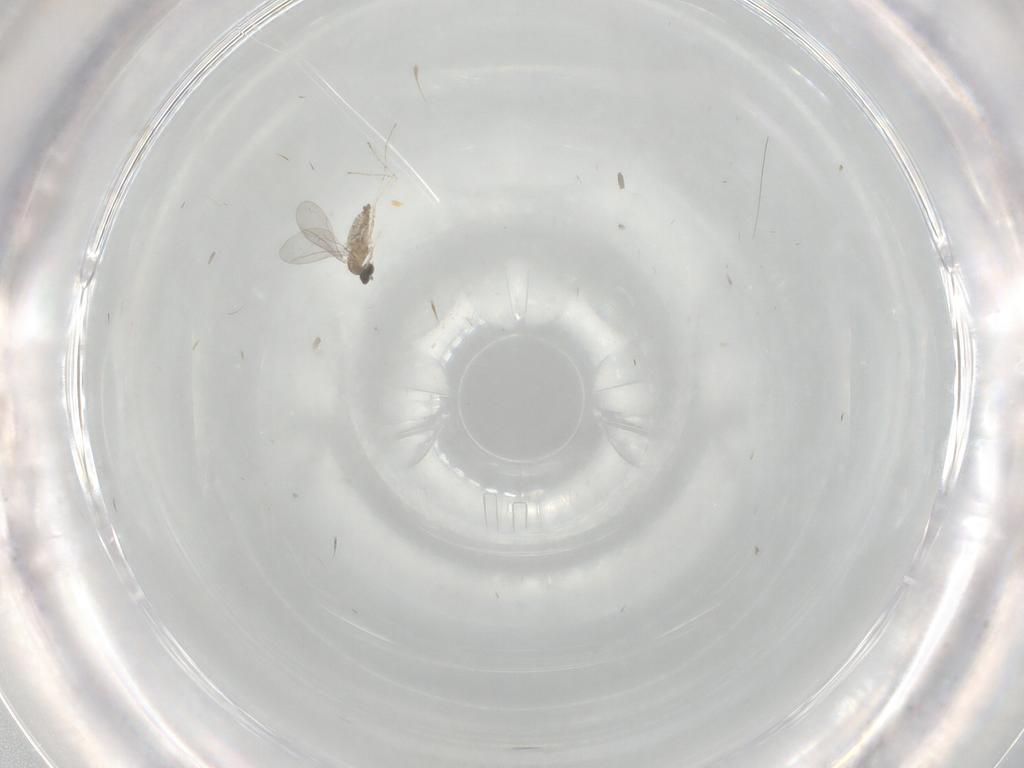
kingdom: Animalia
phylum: Arthropoda
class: Insecta
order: Diptera
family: Cecidomyiidae
